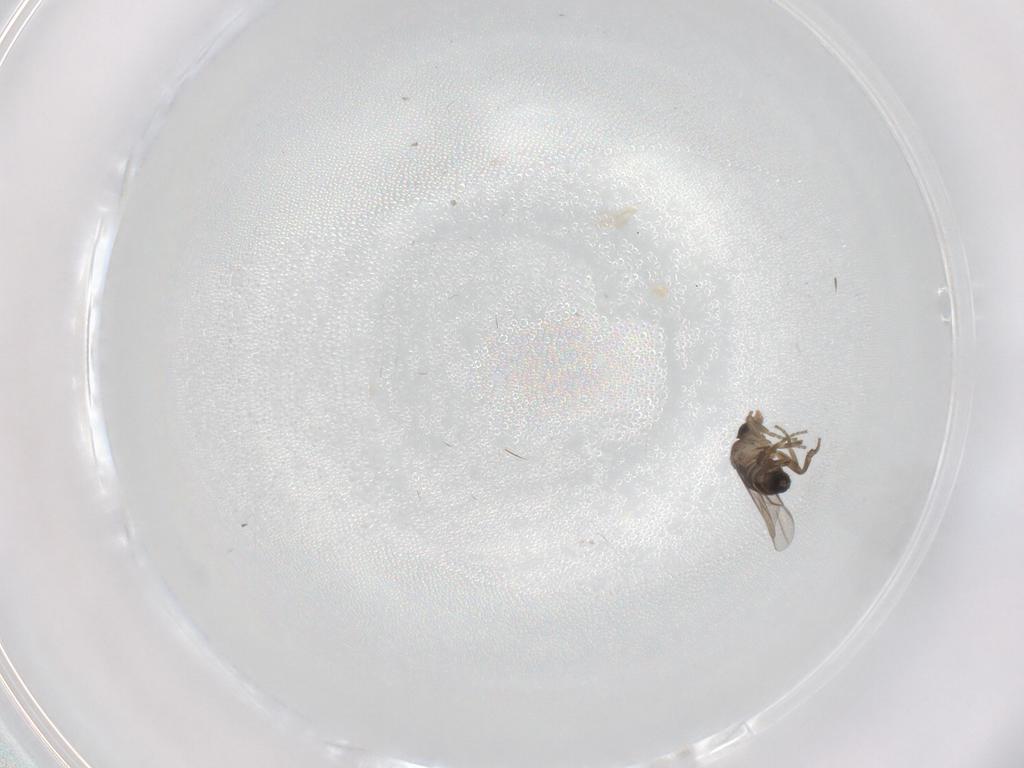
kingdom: Animalia
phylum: Arthropoda
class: Insecta
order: Diptera
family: Phoridae
